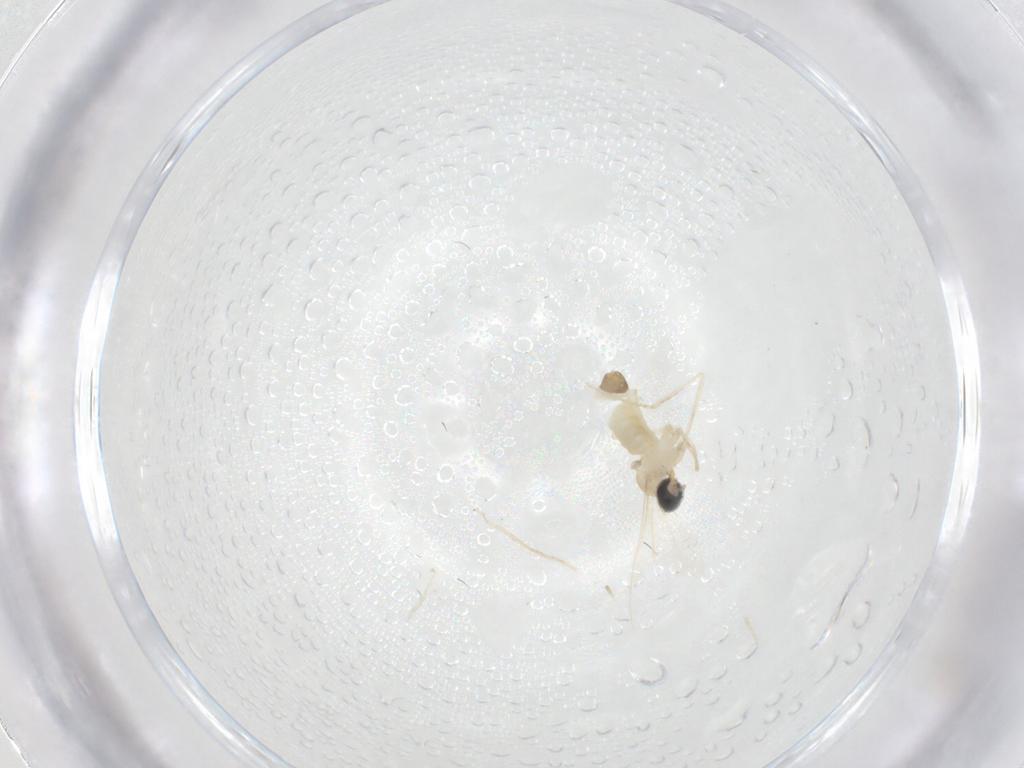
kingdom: Animalia
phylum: Arthropoda
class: Insecta
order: Diptera
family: Cecidomyiidae
